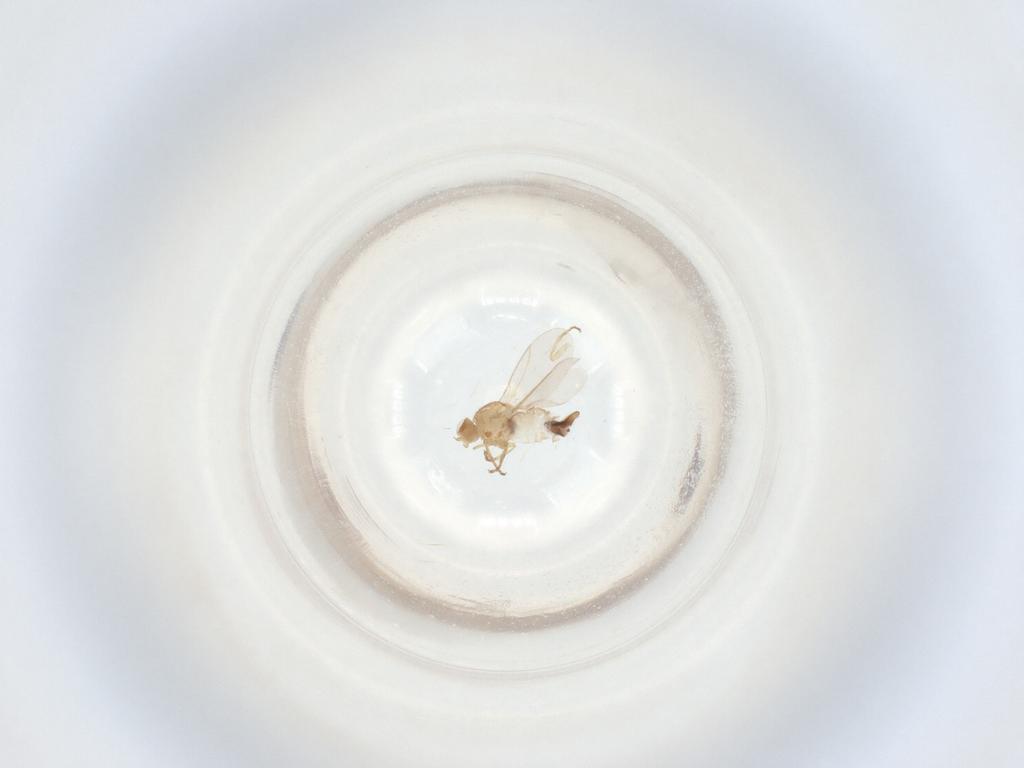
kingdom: Animalia
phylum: Arthropoda
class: Insecta
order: Diptera
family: Agromyzidae
